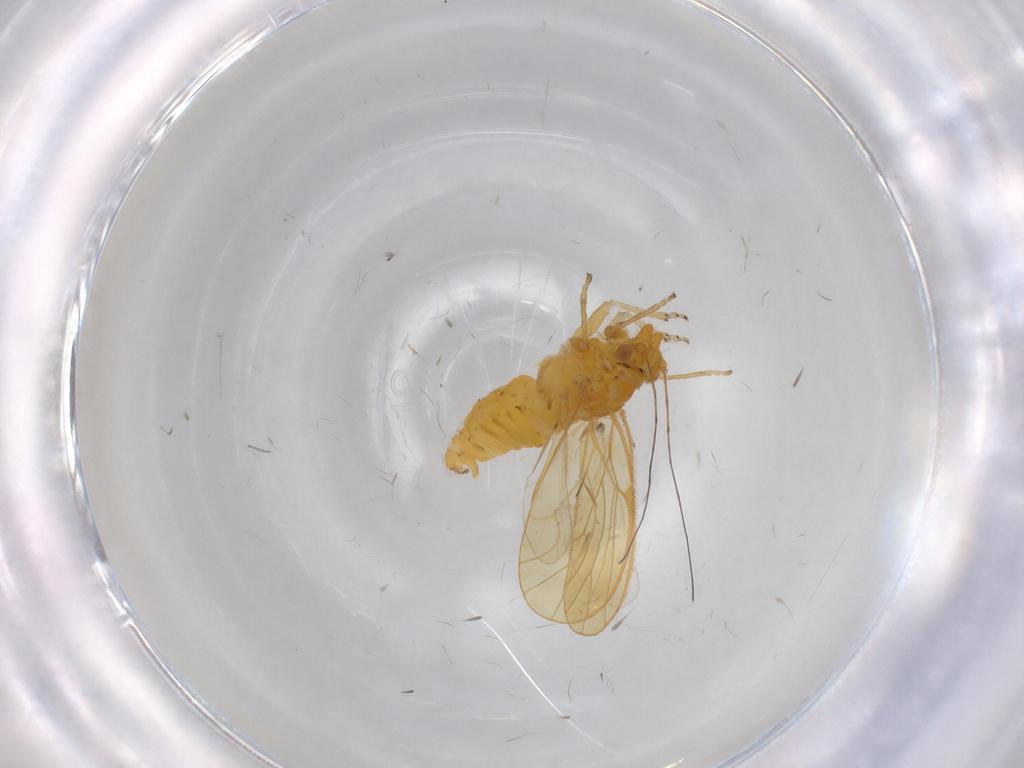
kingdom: Animalia
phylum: Arthropoda
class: Insecta
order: Hemiptera
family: Psyllidae
